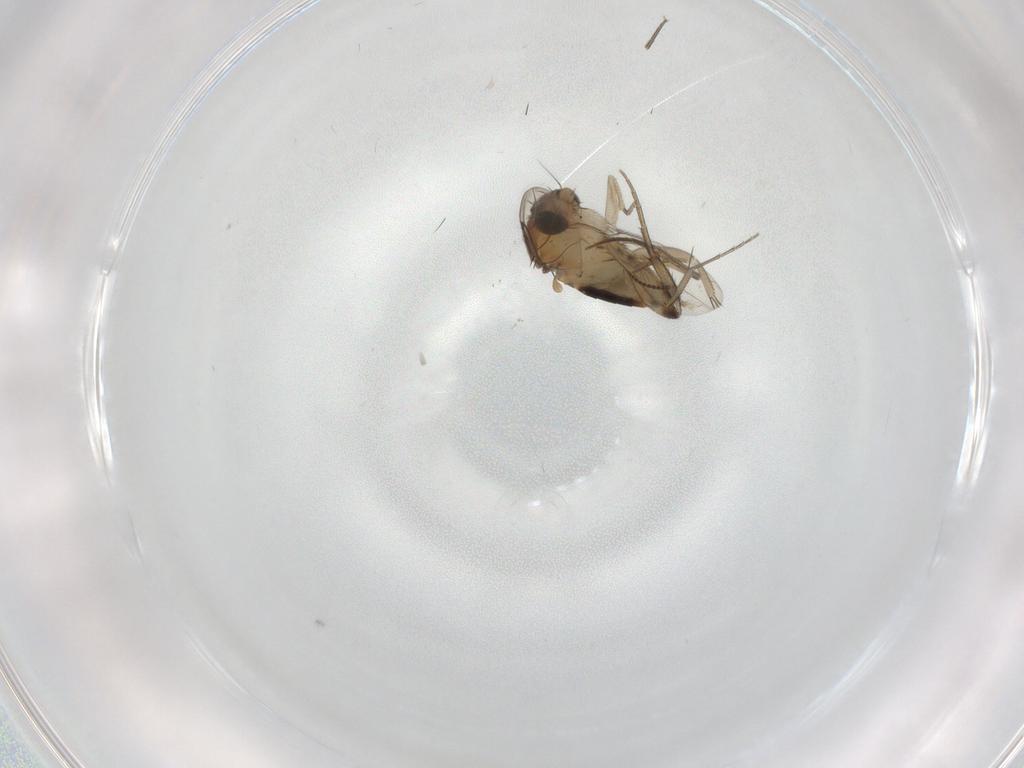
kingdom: Animalia
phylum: Arthropoda
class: Insecta
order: Diptera
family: Phoridae
